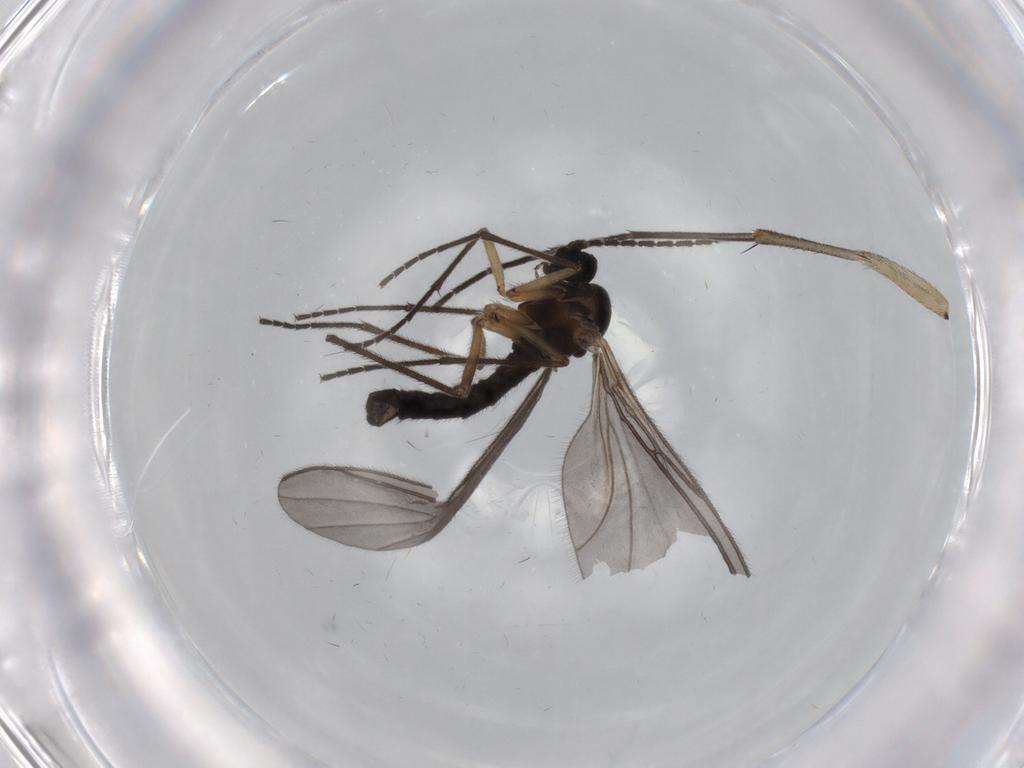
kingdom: Animalia
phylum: Arthropoda
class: Insecta
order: Diptera
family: Sciaridae
